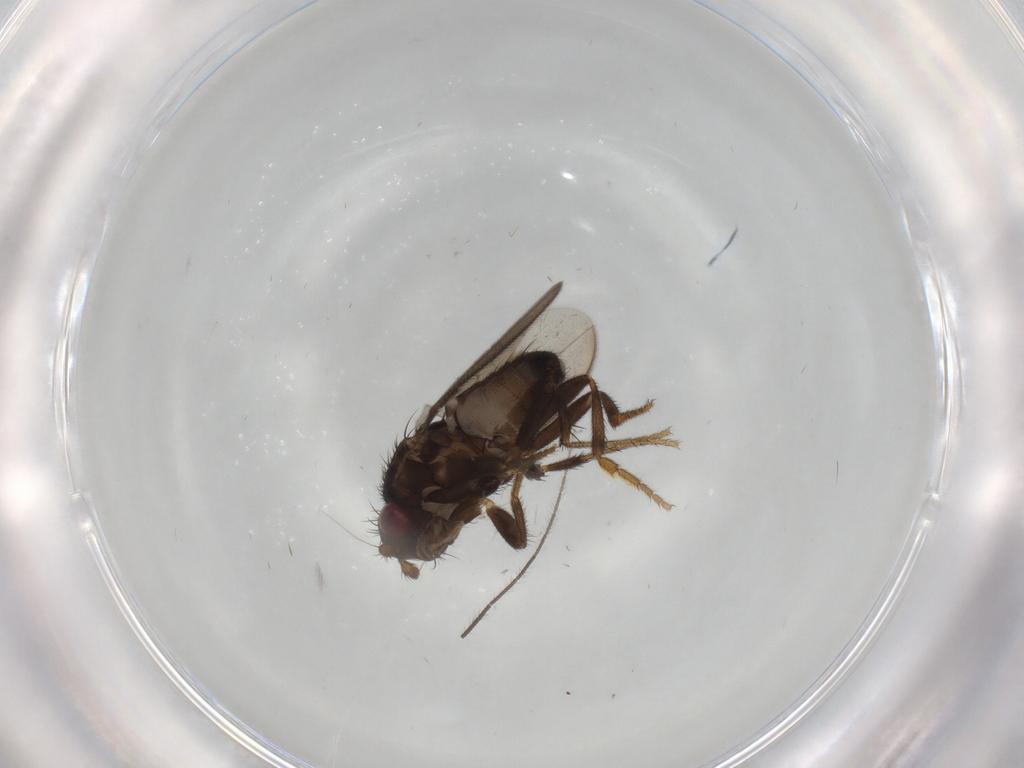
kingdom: Animalia
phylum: Arthropoda
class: Insecta
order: Diptera
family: Sphaeroceridae
